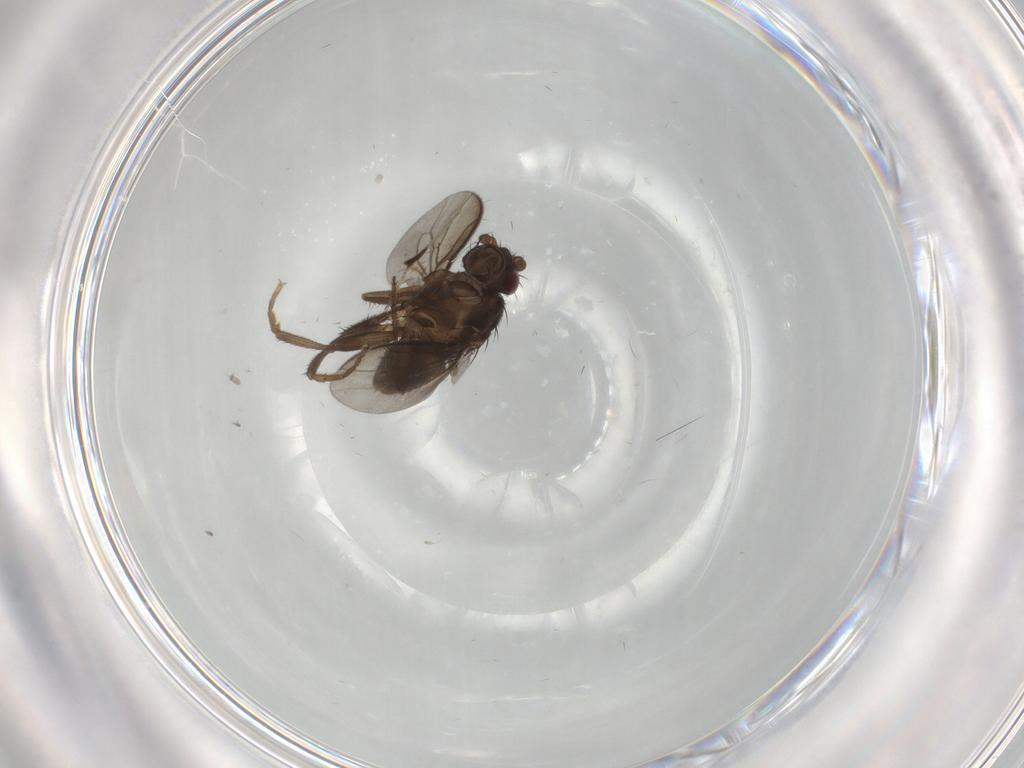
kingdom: Animalia
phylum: Arthropoda
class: Insecta
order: Diptera
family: Sphaeroceridae
